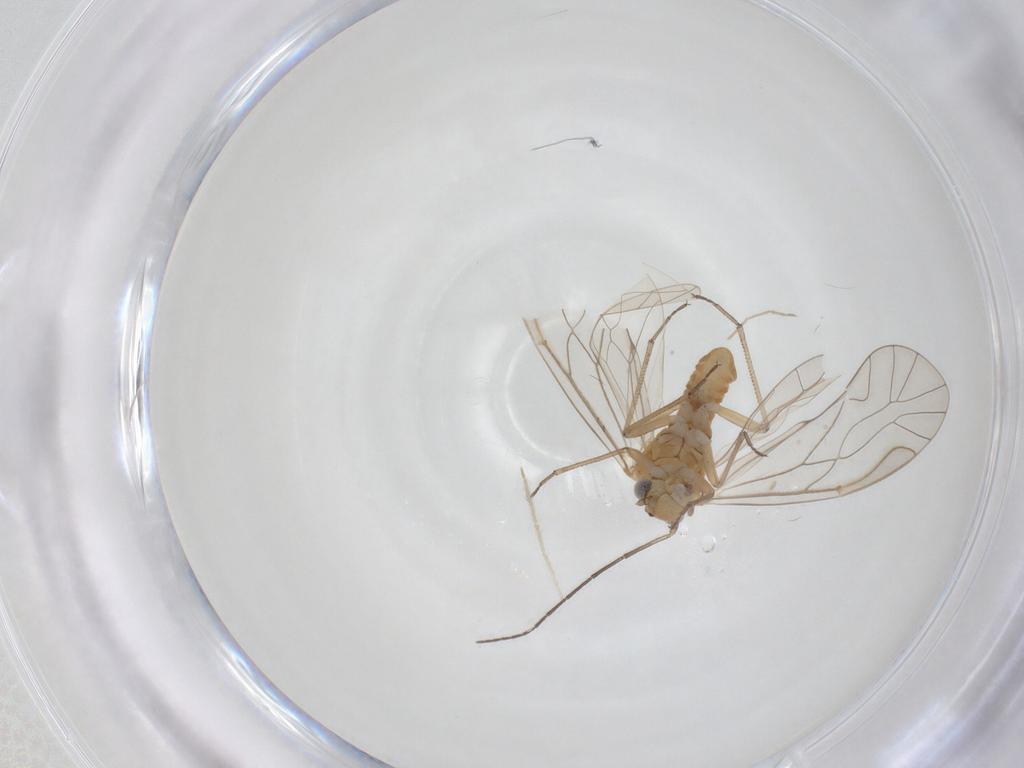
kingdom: Animalia
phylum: Arthropoda
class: Insecta
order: Diptera
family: Chironomidae
